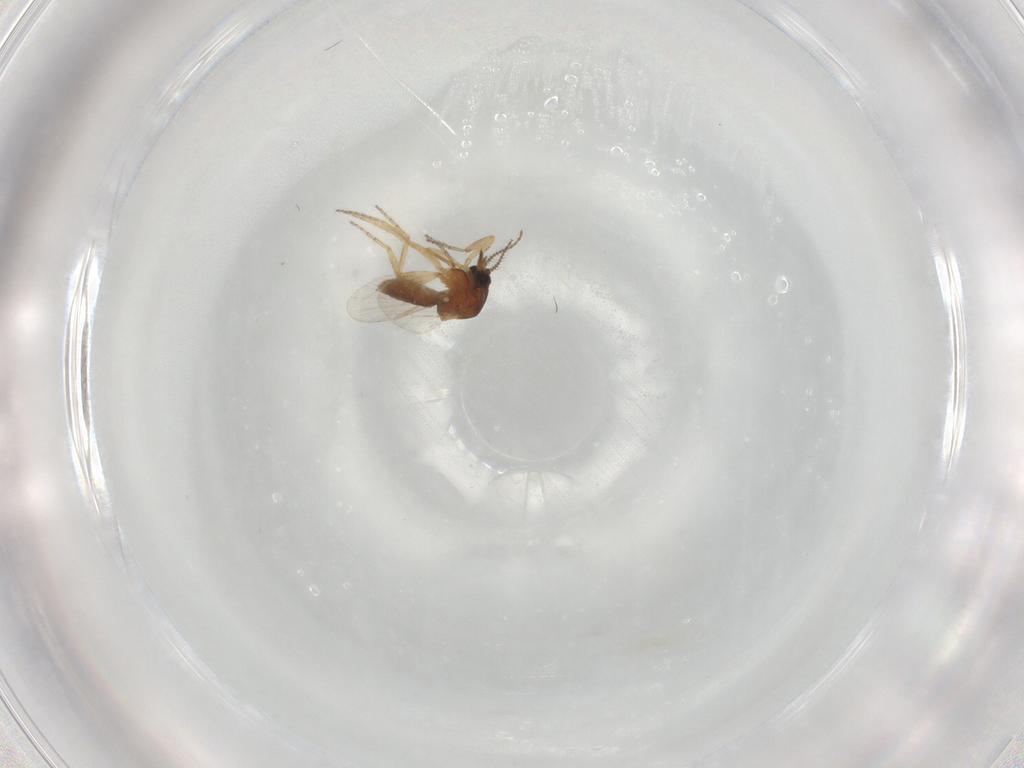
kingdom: Animalia
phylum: Arthropoda
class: Insecta
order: Diptera
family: Ceratopogonidae
